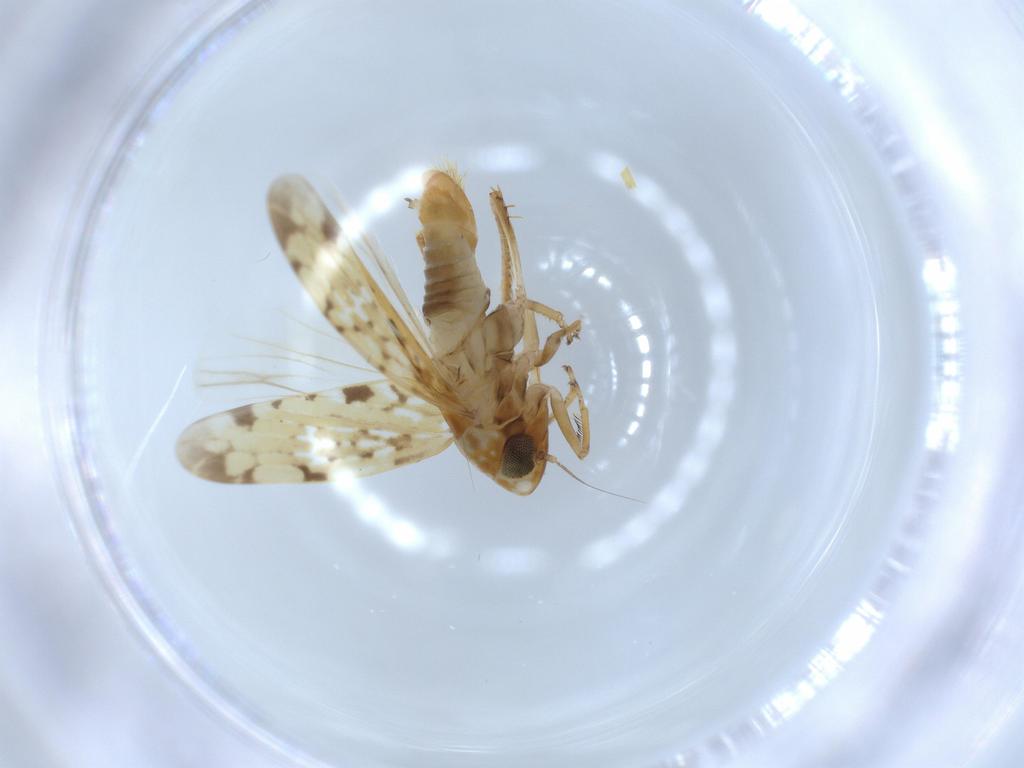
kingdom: Animalia
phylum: Arthropoda
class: Insecta
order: Hemiptera
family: Cicadellidae
